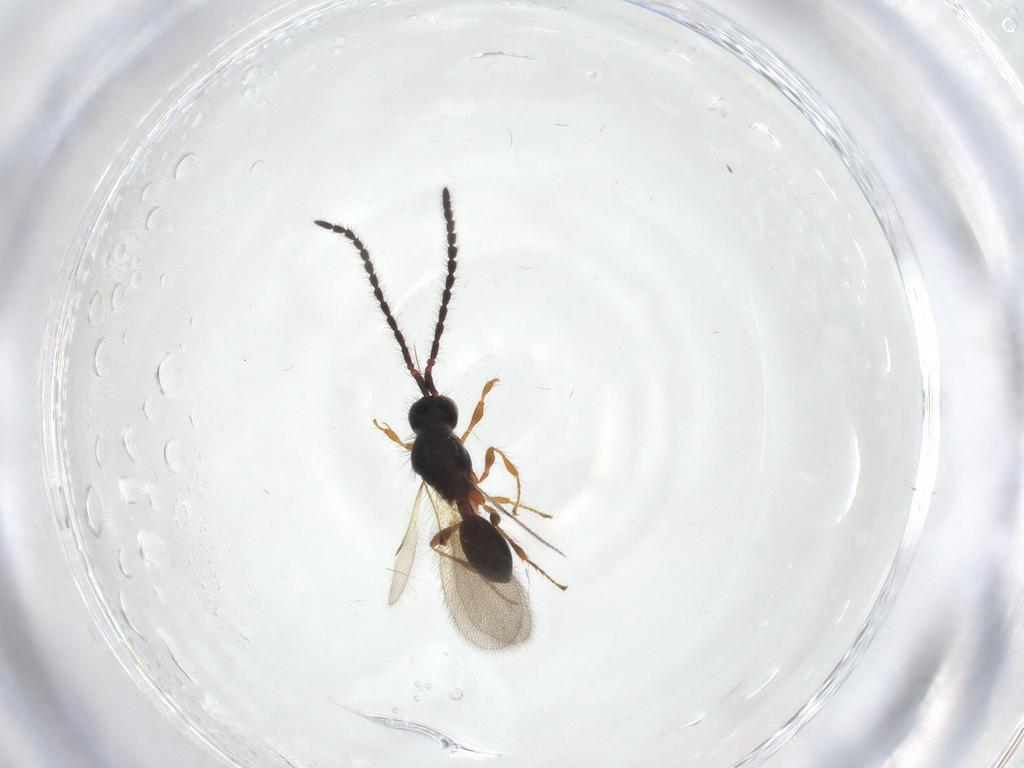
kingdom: Animalia
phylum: Arthropoda
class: Insecta
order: Hymenoptera
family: Diapriidae
